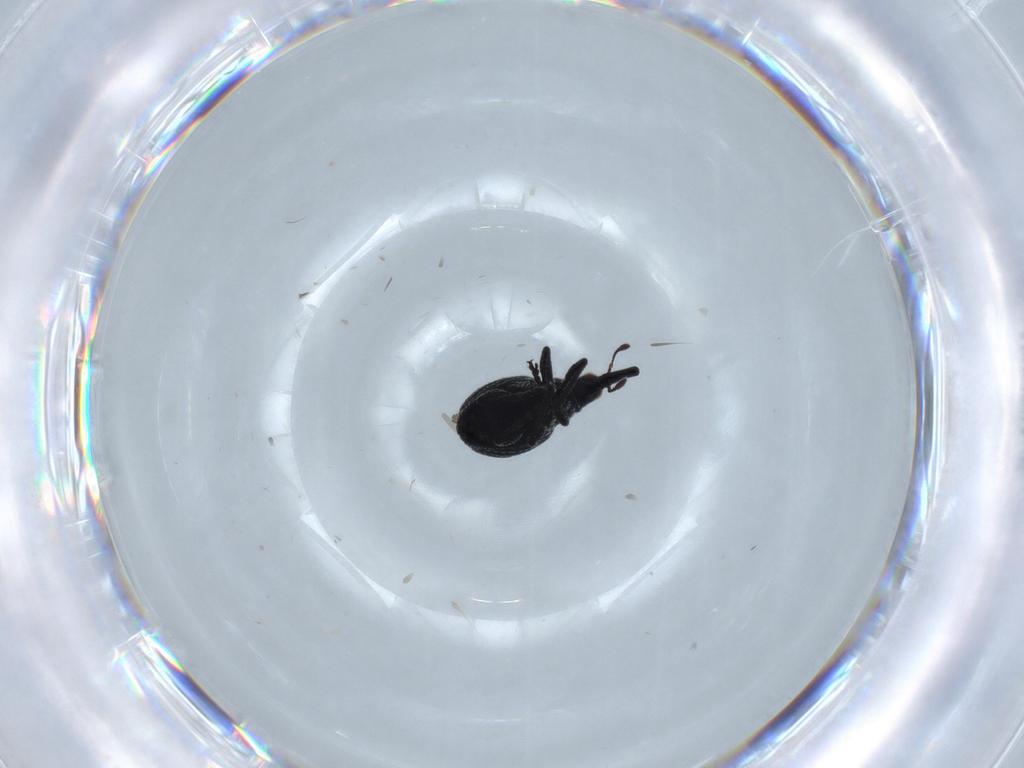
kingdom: Animalia
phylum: Arthropoda
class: Insecta
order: Coleoptera
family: Brentidae
